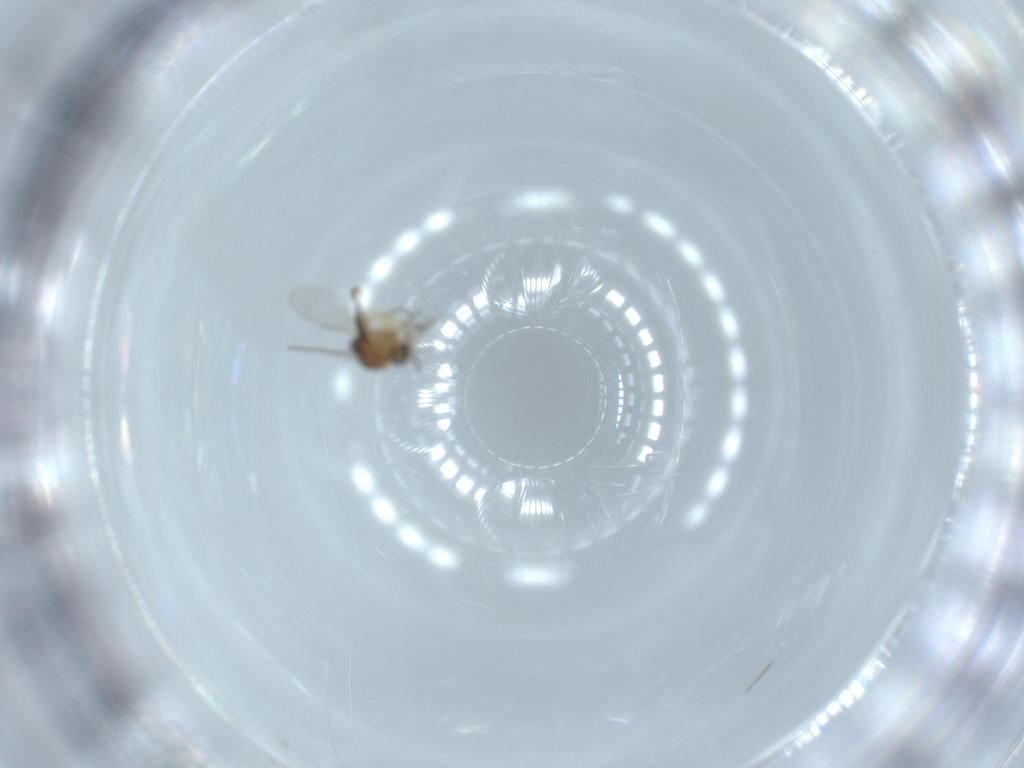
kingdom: Animalia
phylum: Arthropoda
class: Insecta
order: Diptera
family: Ceratopogonidae
